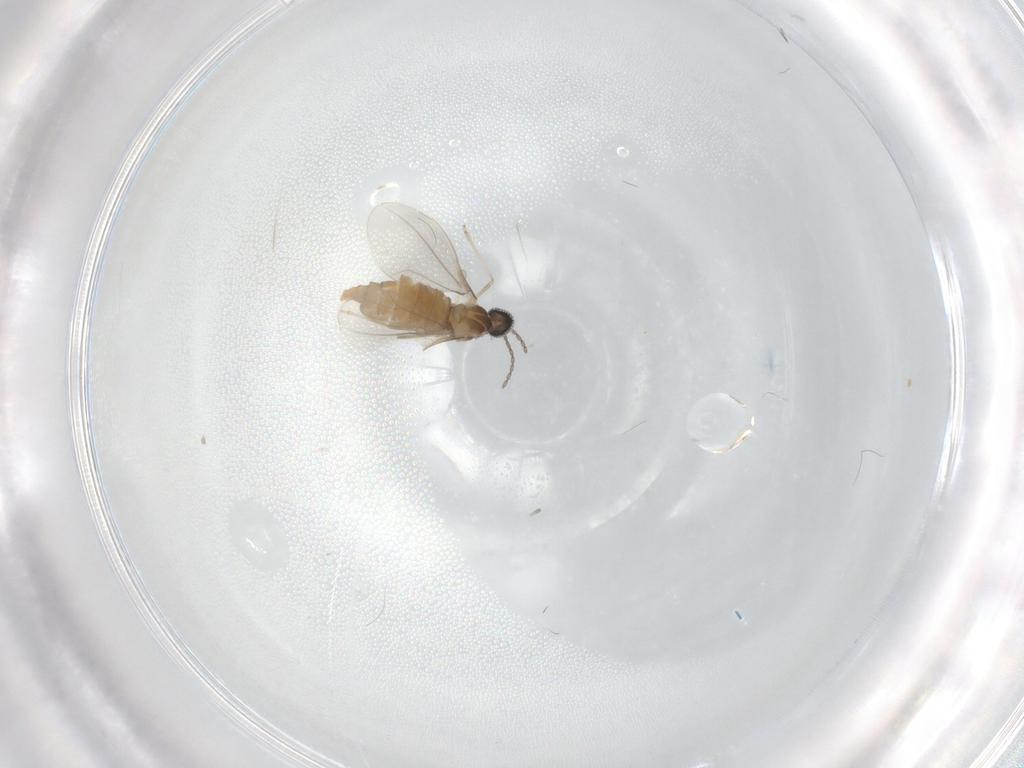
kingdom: Animalia
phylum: Arthropoda
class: Insecta
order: Diptera
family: Cecidomyiidae
